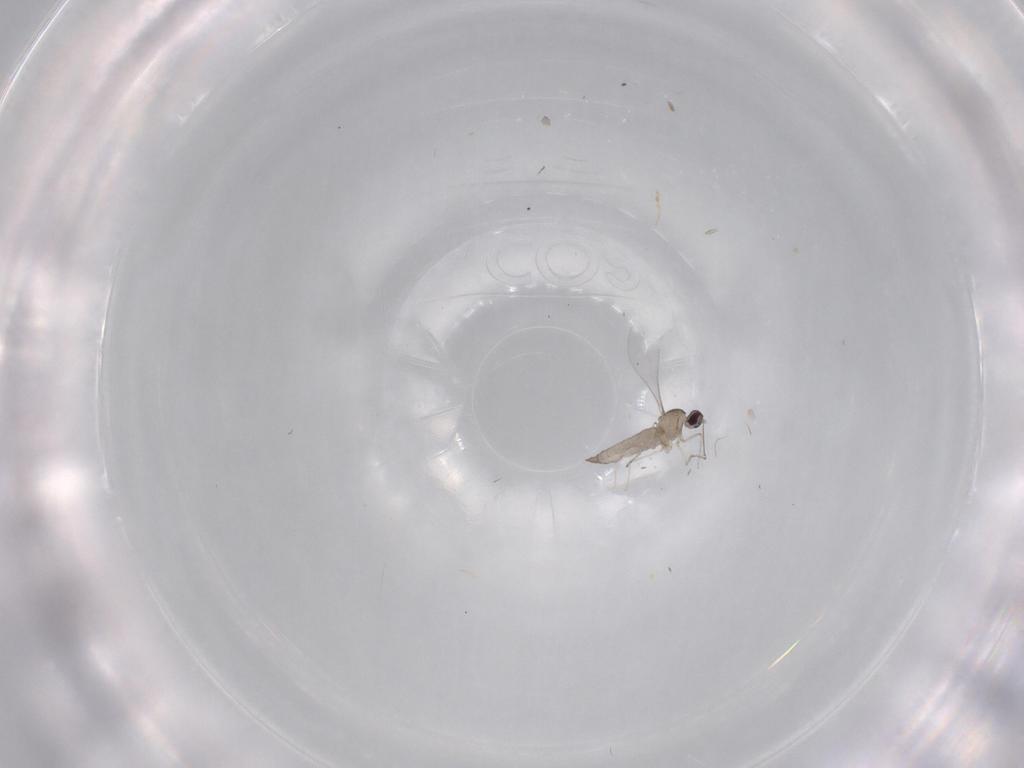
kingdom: Animalia
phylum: Arthropoda
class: Insecta
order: Diptera
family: Cecidomyiidae
